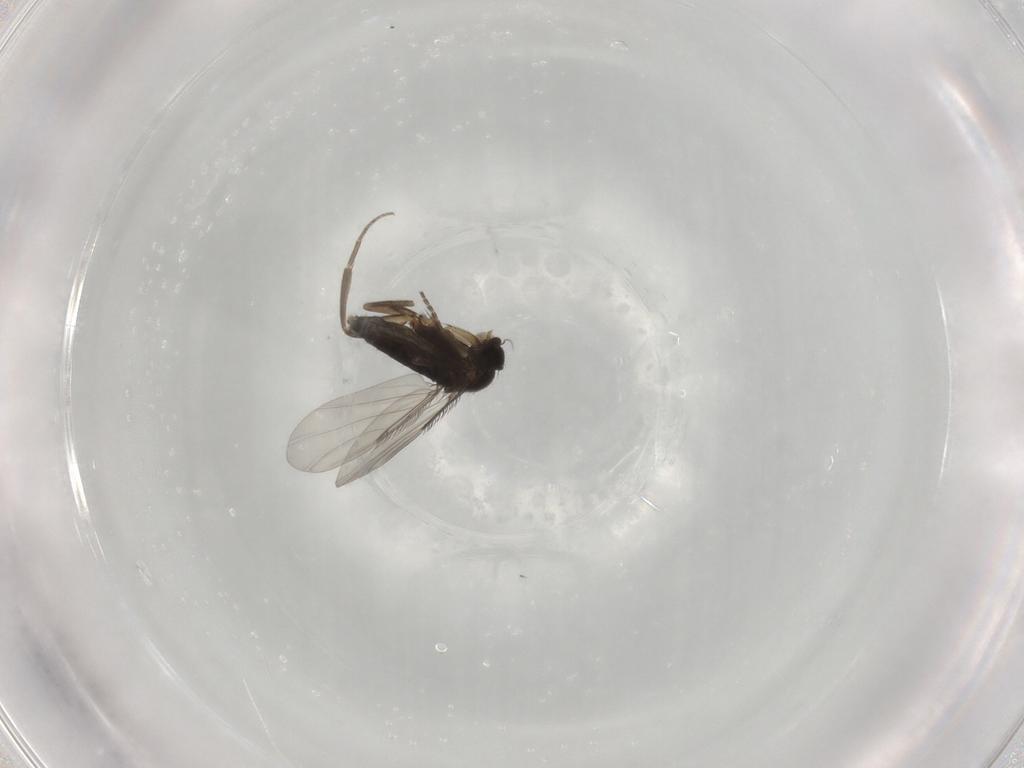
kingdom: Animalia
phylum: Arthropoda
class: Insecta
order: Diptera
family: Phoridae
